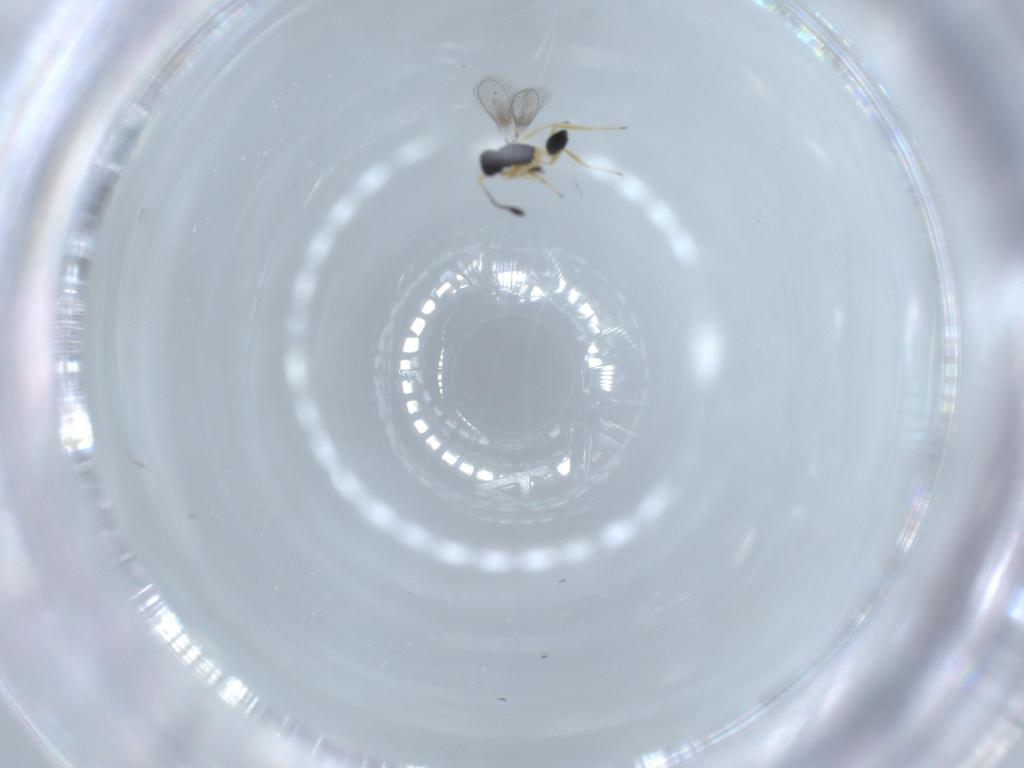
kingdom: Animalia
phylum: Arthropoda
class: Insecta
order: Hymenoptera
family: Mymaridae
